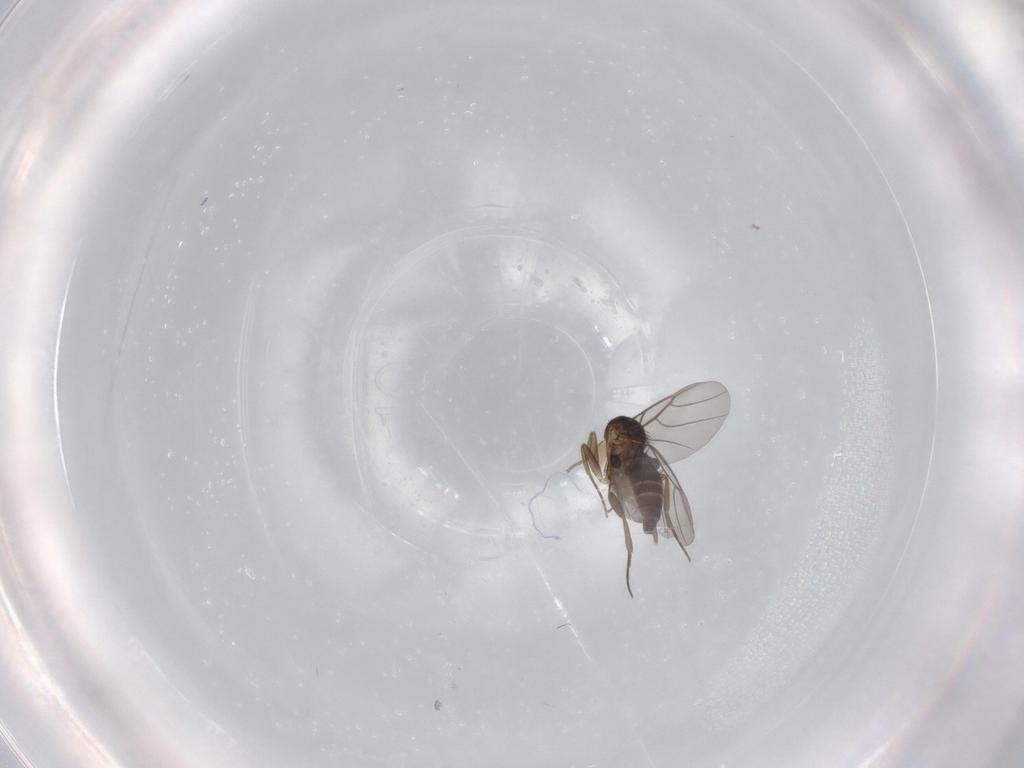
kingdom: Animalia
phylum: Arthropoda
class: Insecta
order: Diptera
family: Phoridae
